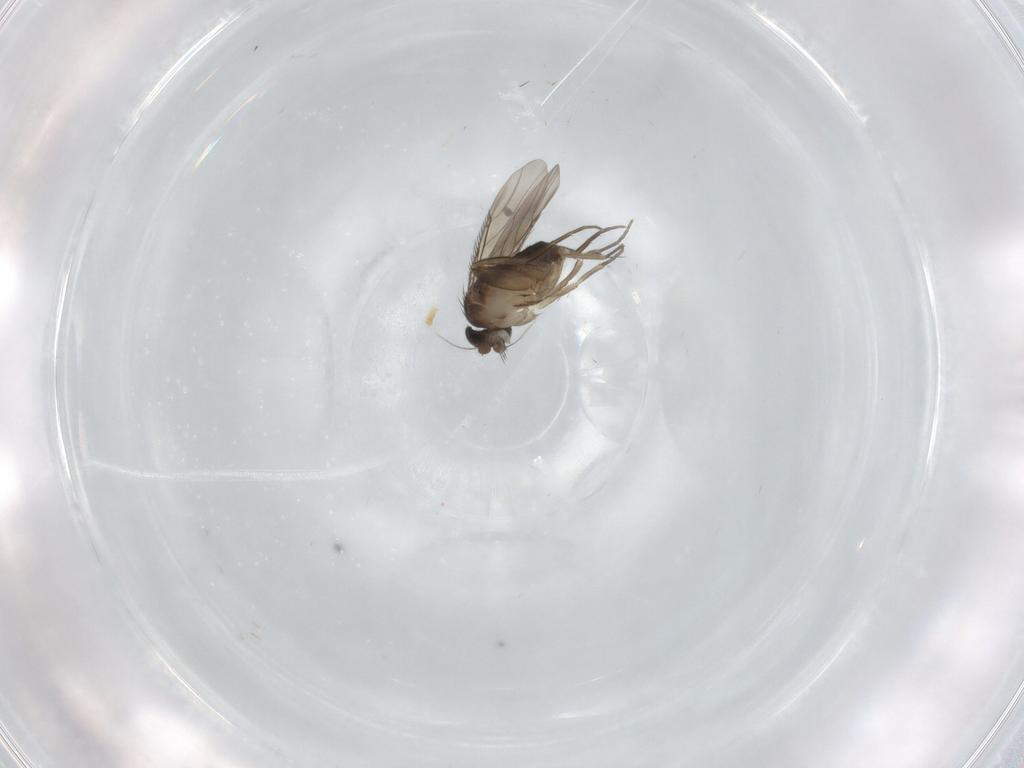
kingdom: Animalia
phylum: Arthropoda
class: Insecta
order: Diptera
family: Phoridae
